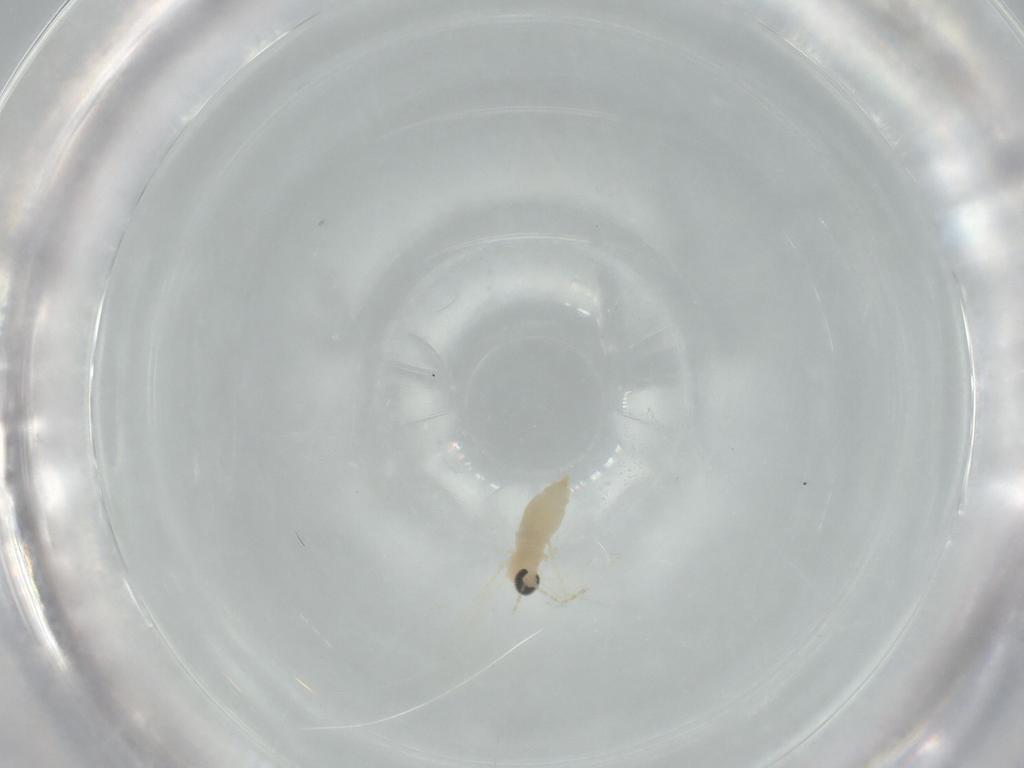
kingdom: Animalia
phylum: Arthropoda
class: Insecta
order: Diptera
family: Cecidomyiidae
